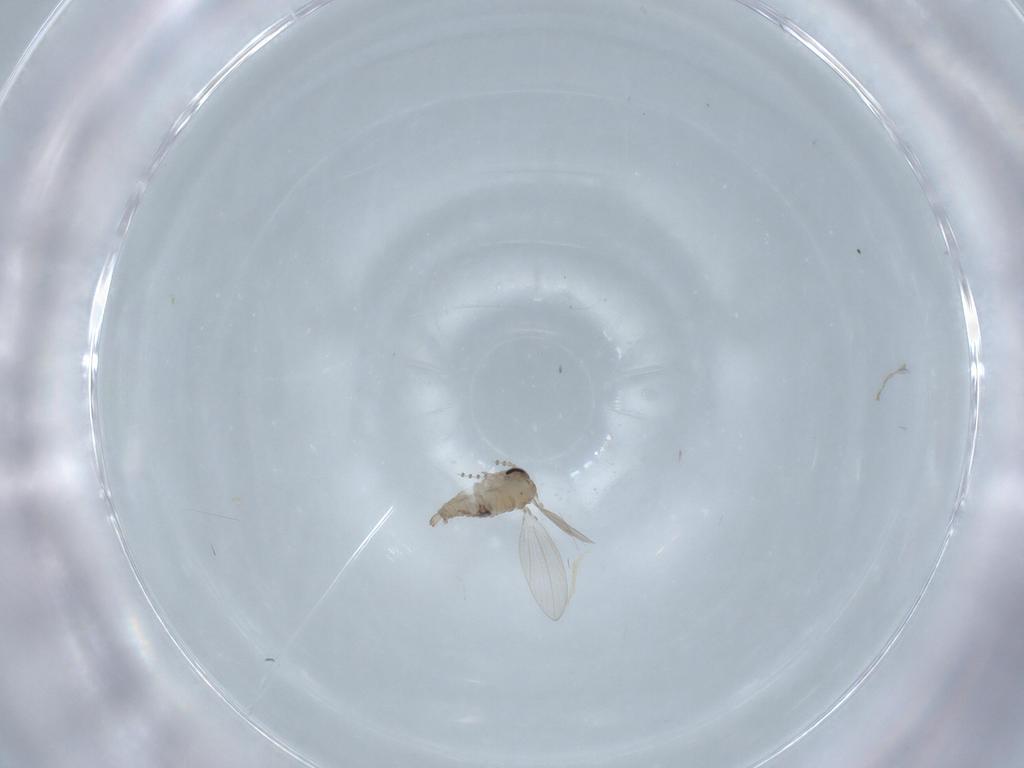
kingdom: Animalia
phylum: Arthropoda
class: Insecta
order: Diptera
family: Psychodidae
